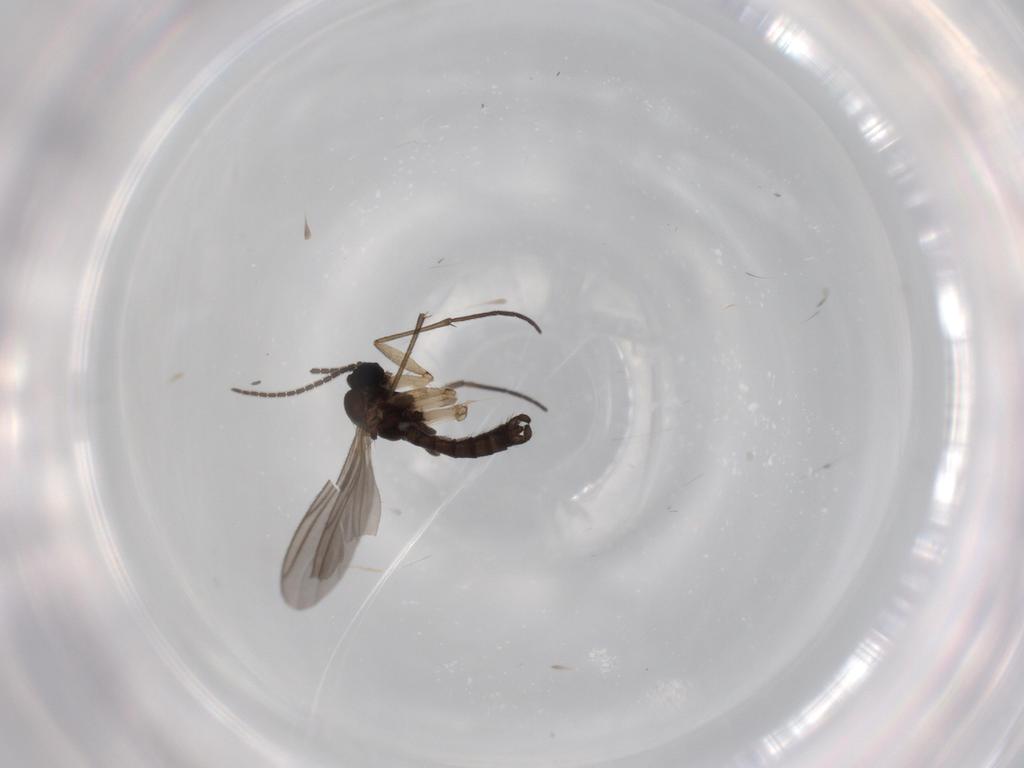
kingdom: Animalia
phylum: Arthropoda
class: Insecta
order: Diptera
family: Sciaridae
